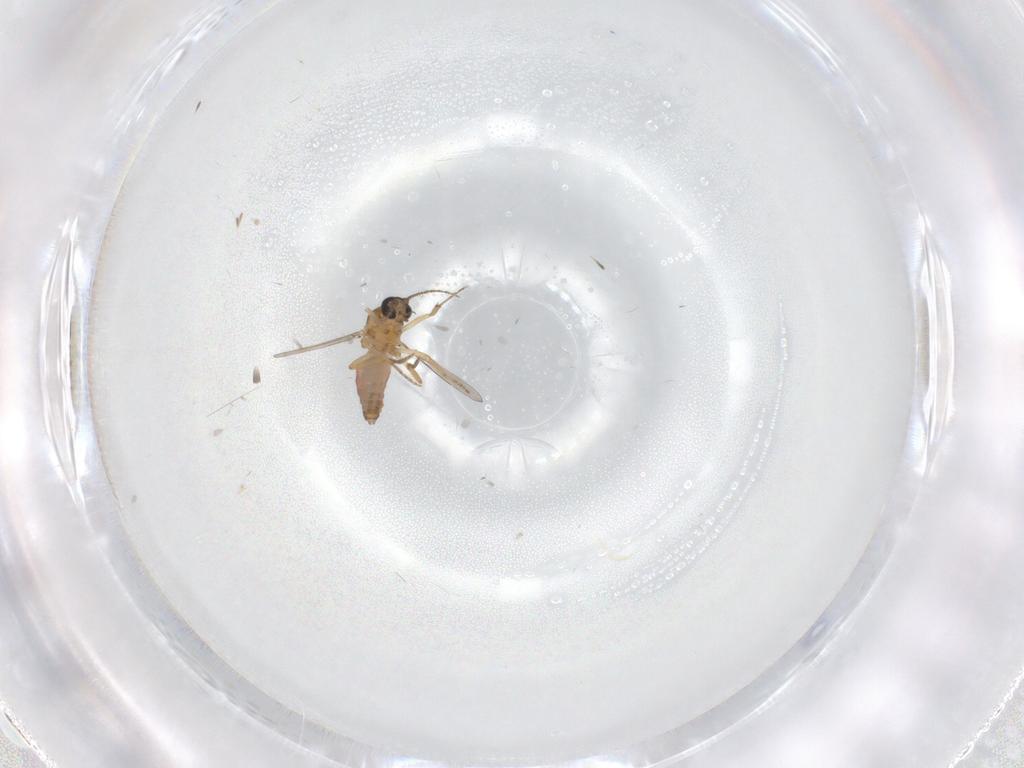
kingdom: Animalia
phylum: Arthropoda
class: Insecta
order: Diptera
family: Ceratopogonidae
